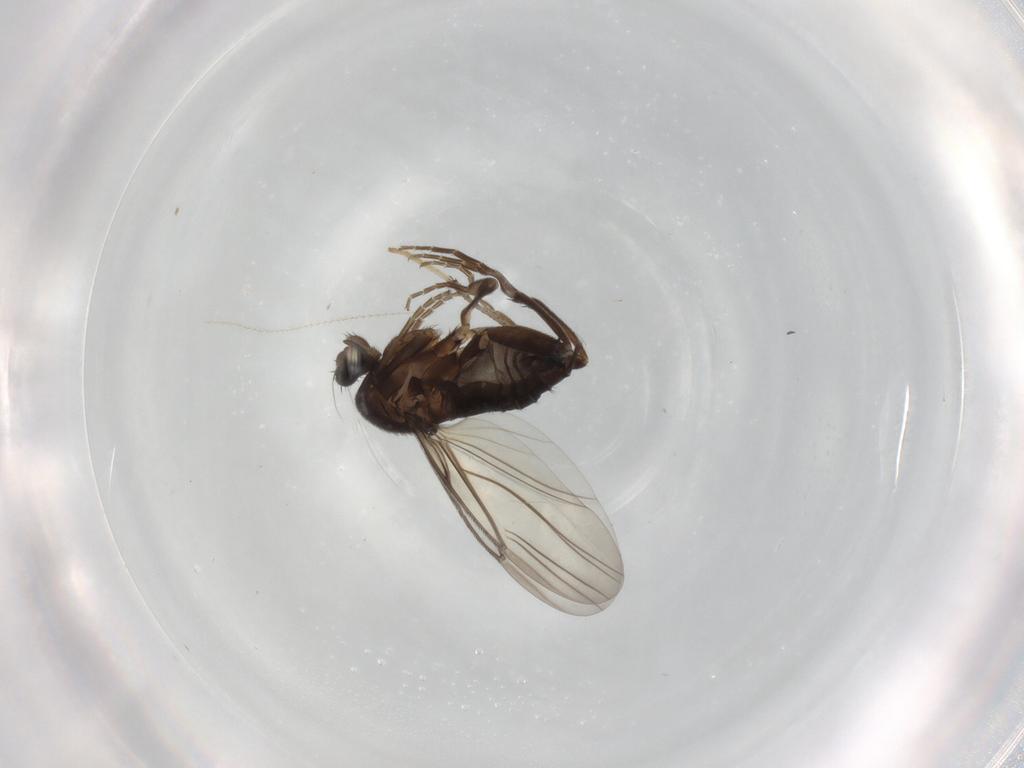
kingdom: Animalia
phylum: Arthropoda
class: Insecta
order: Diptera
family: Psychodidae
